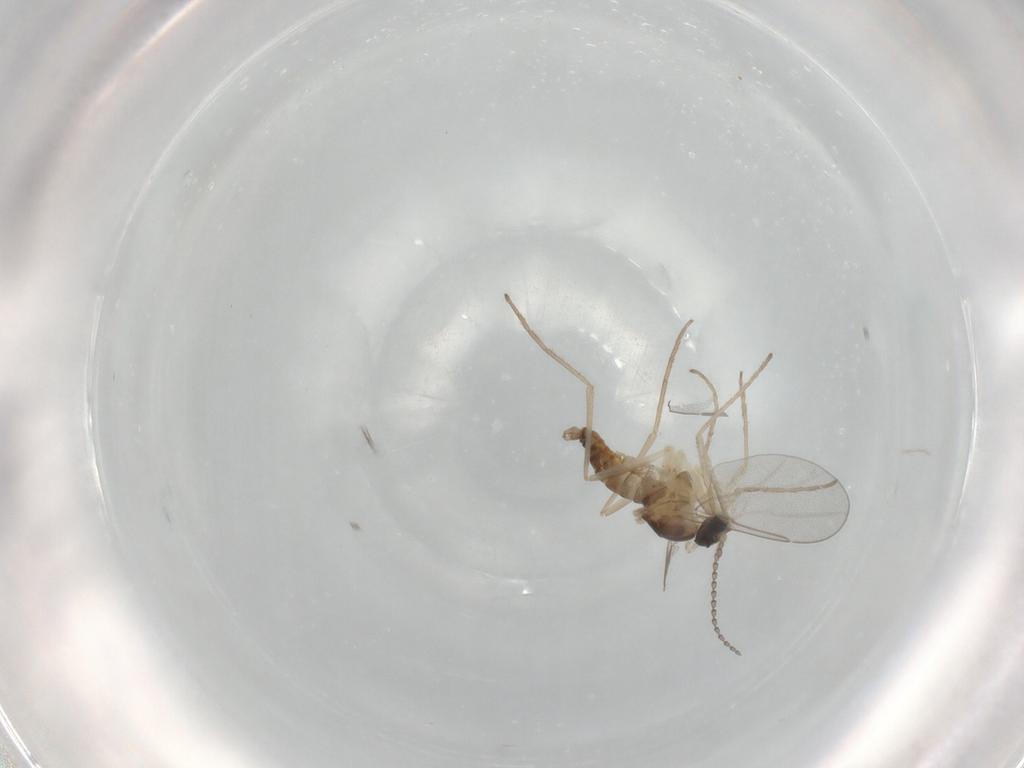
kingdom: Animalia
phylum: Arthropoda
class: Insecta
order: Diptera
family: Cecidomyiidae
